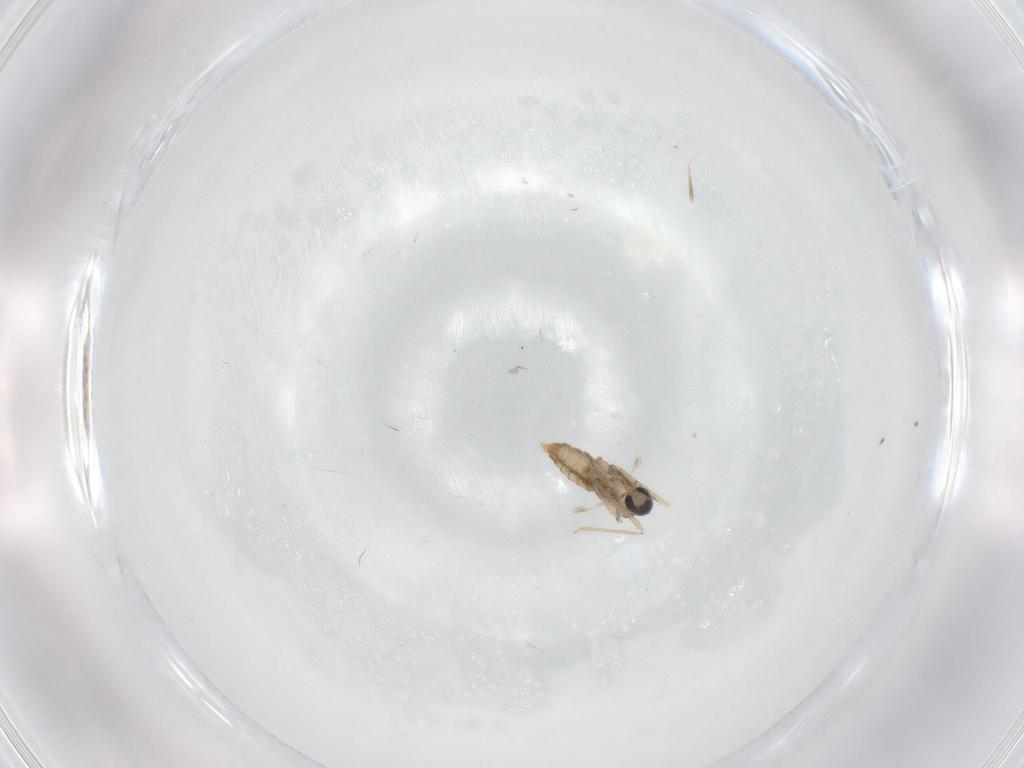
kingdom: Animalia
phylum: Arthropoda
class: Insecta
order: Diptera
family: Cecidomyiidae
